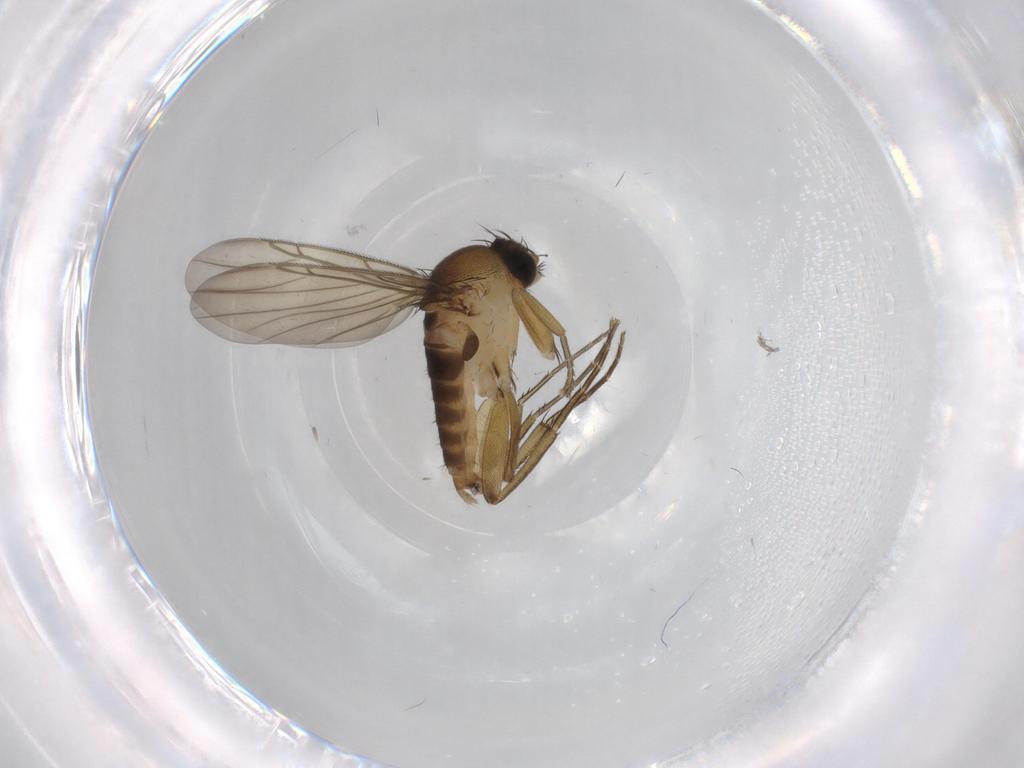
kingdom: Animalia
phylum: Arthropoda
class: Insecta
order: Diptera
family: Phoridae
